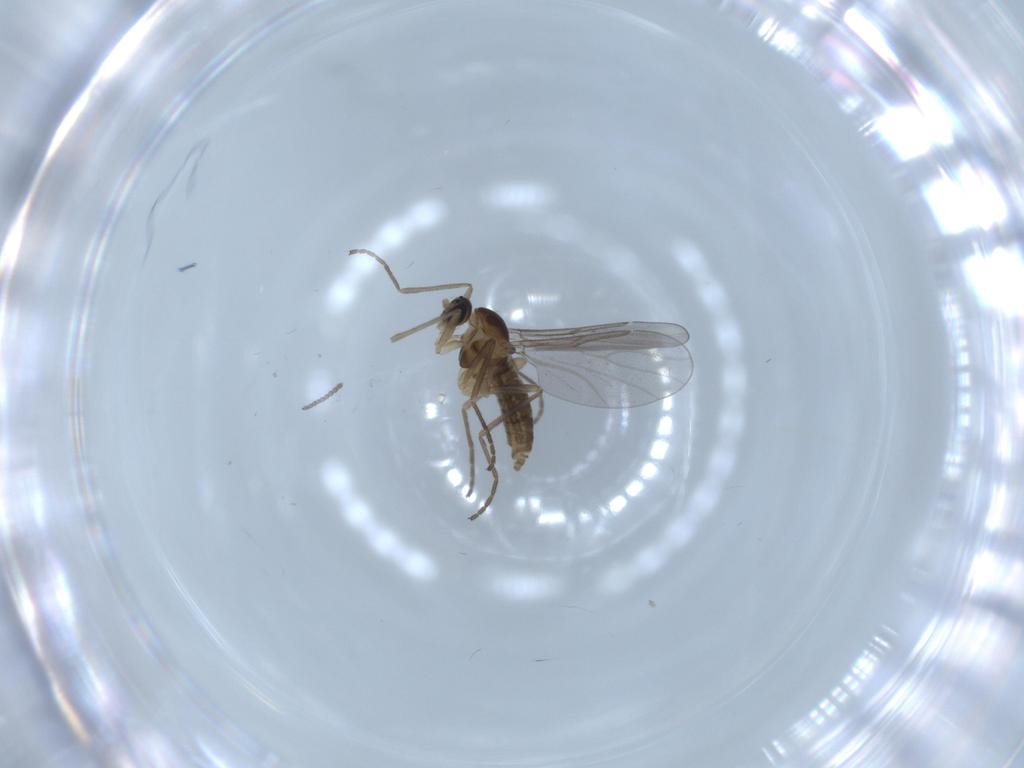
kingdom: Animalia
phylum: Arthropoda
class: Insecta
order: Diptera
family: Cecidomyiidae
